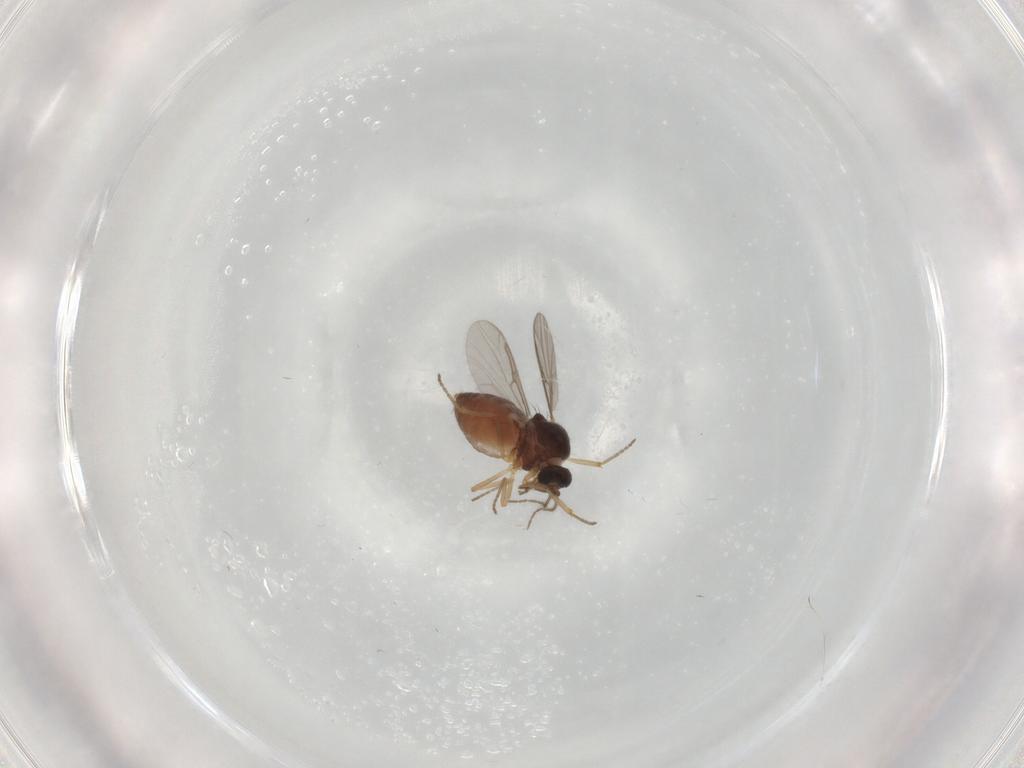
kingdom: Animalia
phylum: Arthropoda
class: Insecta
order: Diptera
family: Ceratopogonidae
